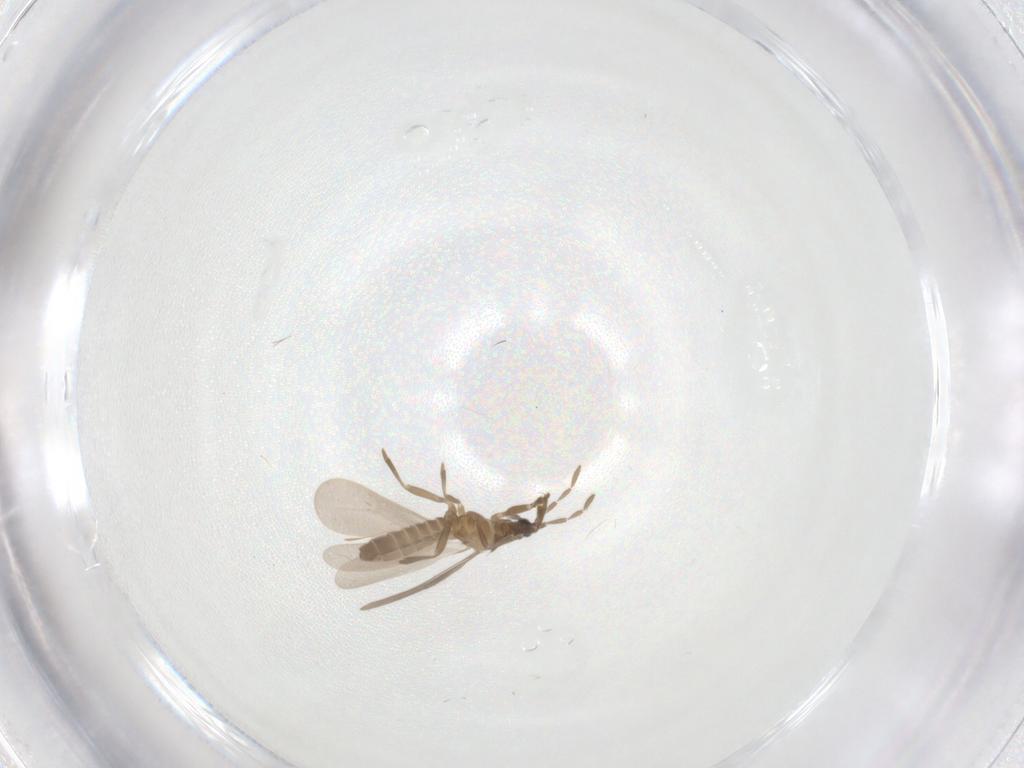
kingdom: Animalia
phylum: Arthropoda
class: Insecta
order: Hemiptera
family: Enicocephalidae
